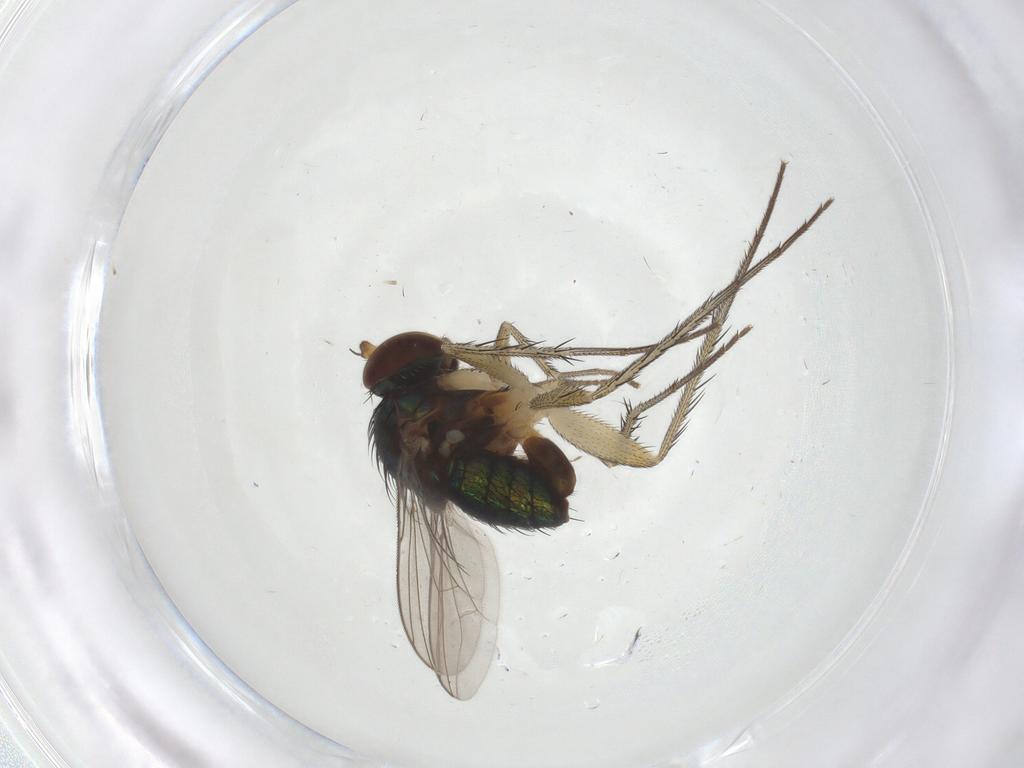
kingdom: Animalia
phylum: Arthropoda
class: Insecta
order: Diptera
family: Dolichopodidae
